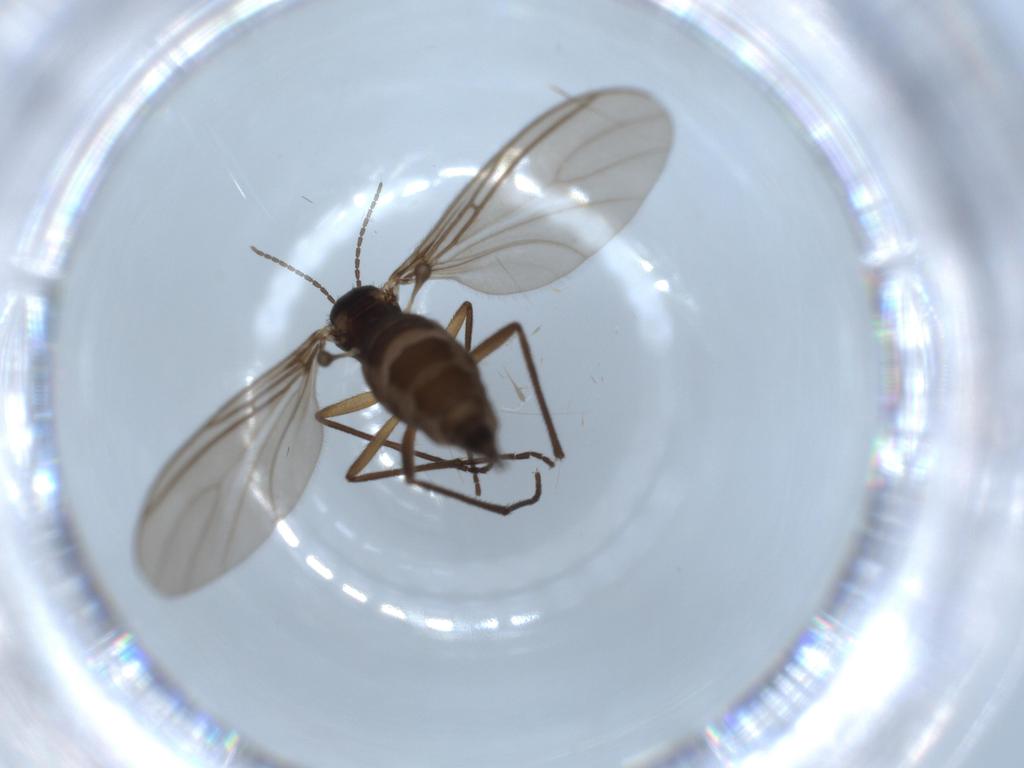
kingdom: Animalia
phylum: Arthropoda
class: Insecta
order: Diptera
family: Sciaridae
